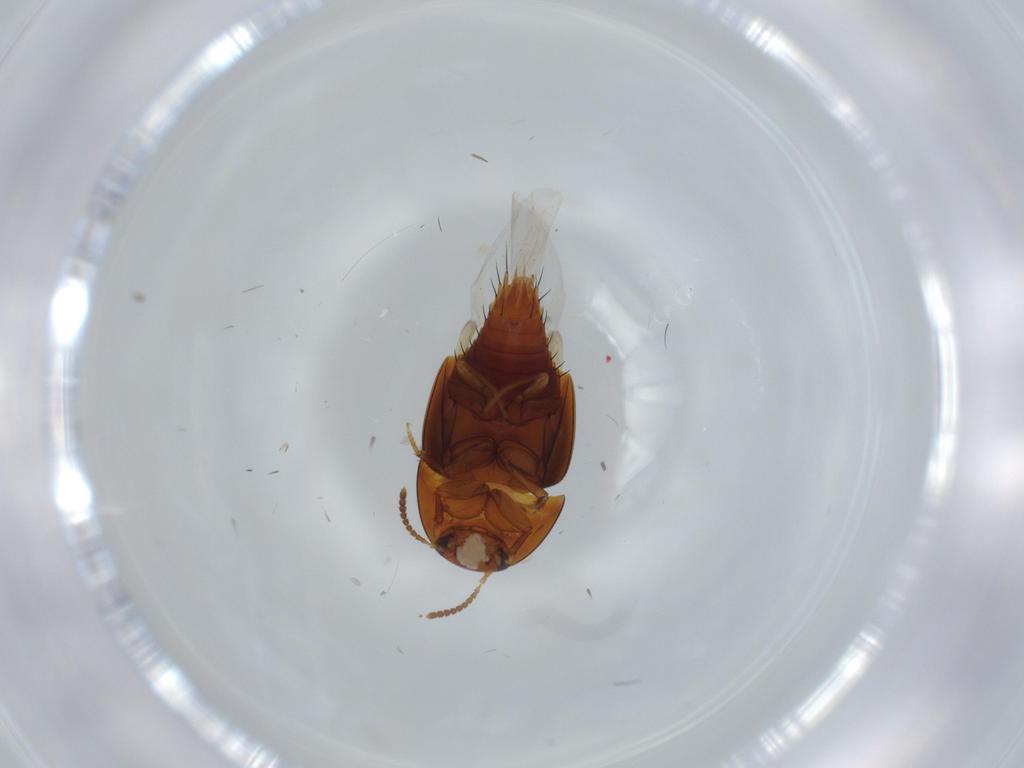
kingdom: Animalia
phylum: Arthropoda
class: Insecta
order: Coleoptera
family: Staphylinidae
